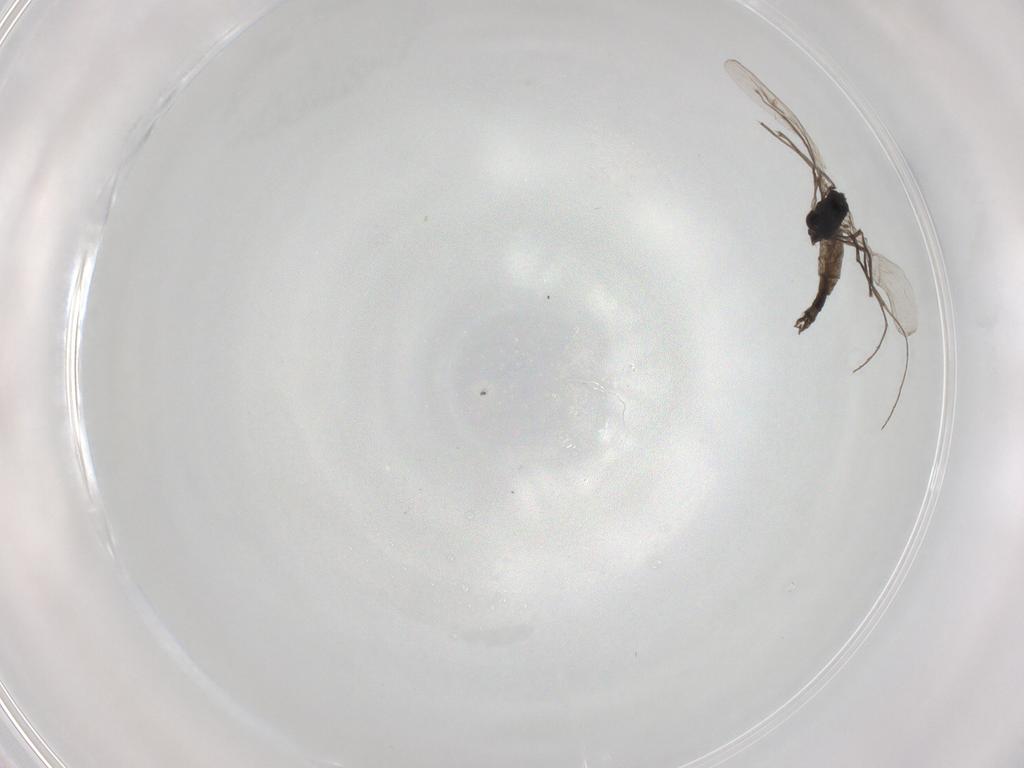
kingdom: Animalia
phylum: Arthropoda
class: Insecta
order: Diptera
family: Chironomidae
